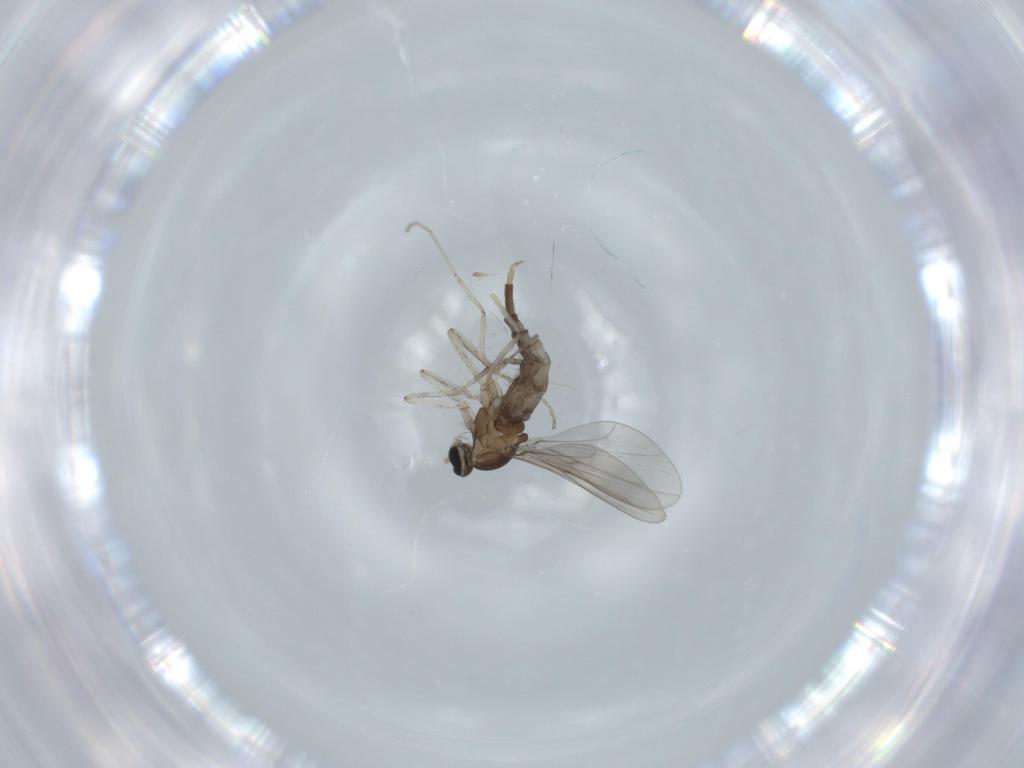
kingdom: Animalia
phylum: Arthropoda
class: Insecta
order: Diptera
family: Cecidomyiidae
